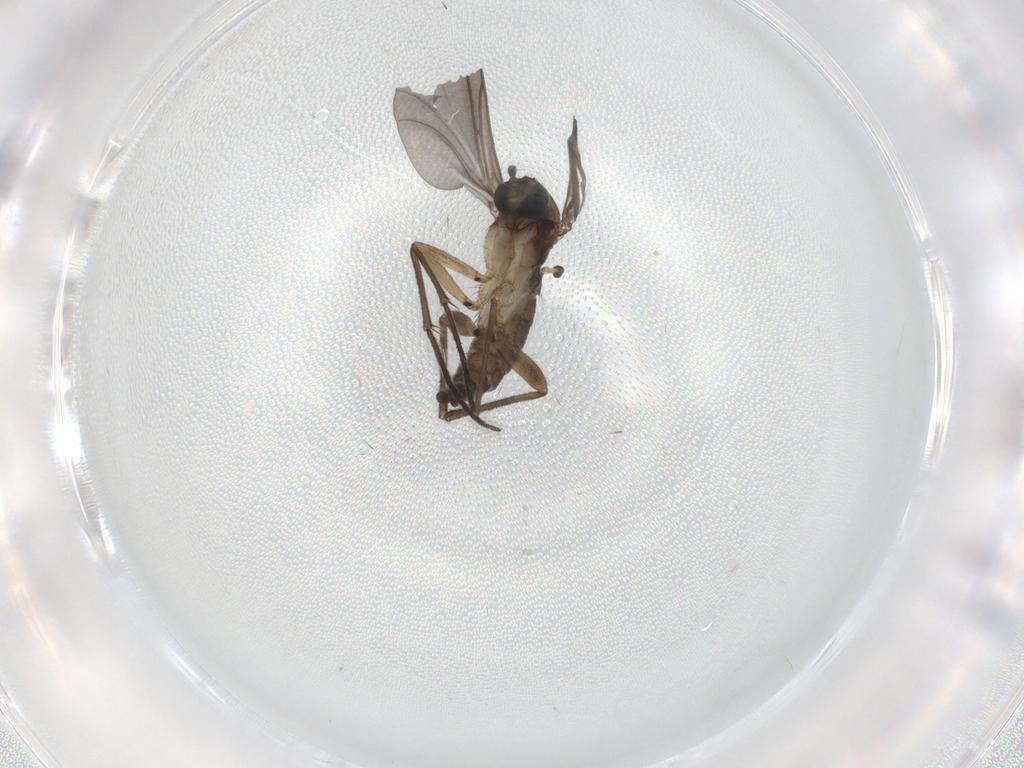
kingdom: Animalia
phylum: Arthropoda
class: Insecta
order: Diptera
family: Sciaridae
